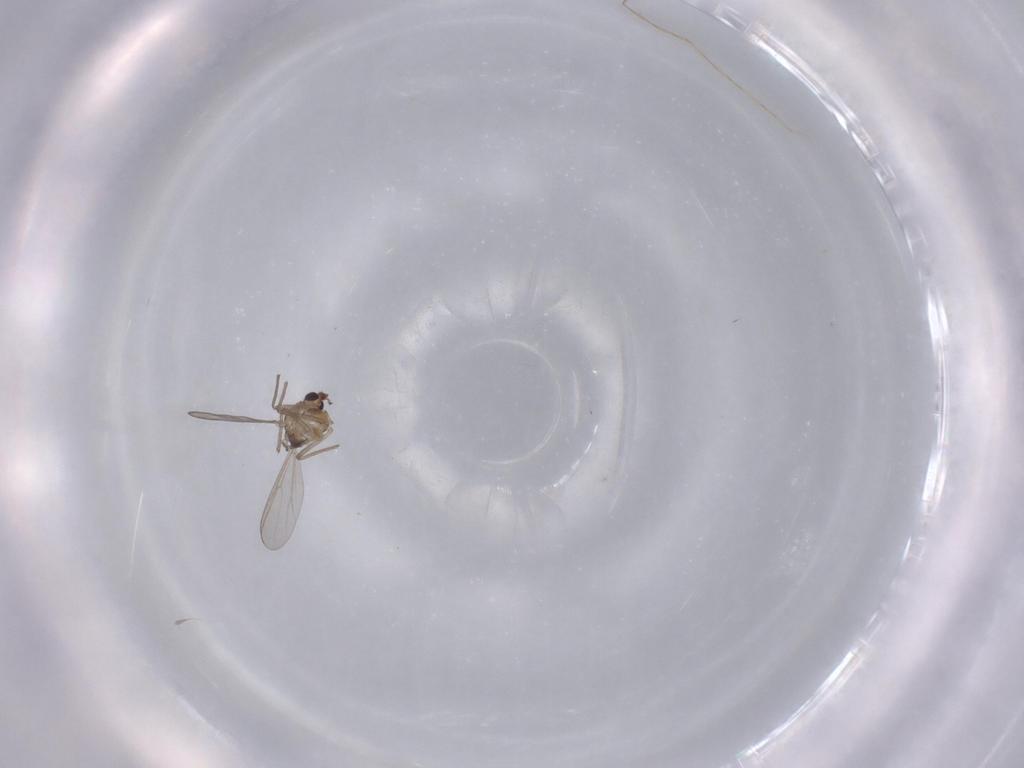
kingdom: Animalia
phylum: Arthropoda
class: Insecta
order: Diptera
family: Chironomidae
